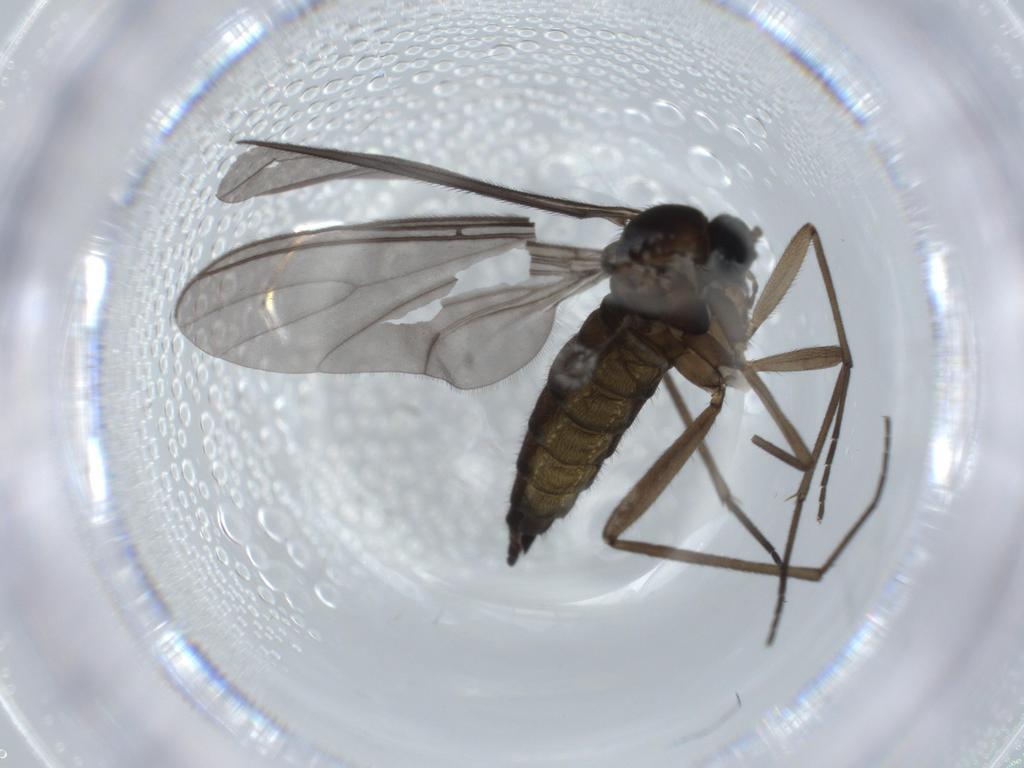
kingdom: Animalia
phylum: Arthropoda
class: Insecta
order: Diptera
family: Sciaridae
